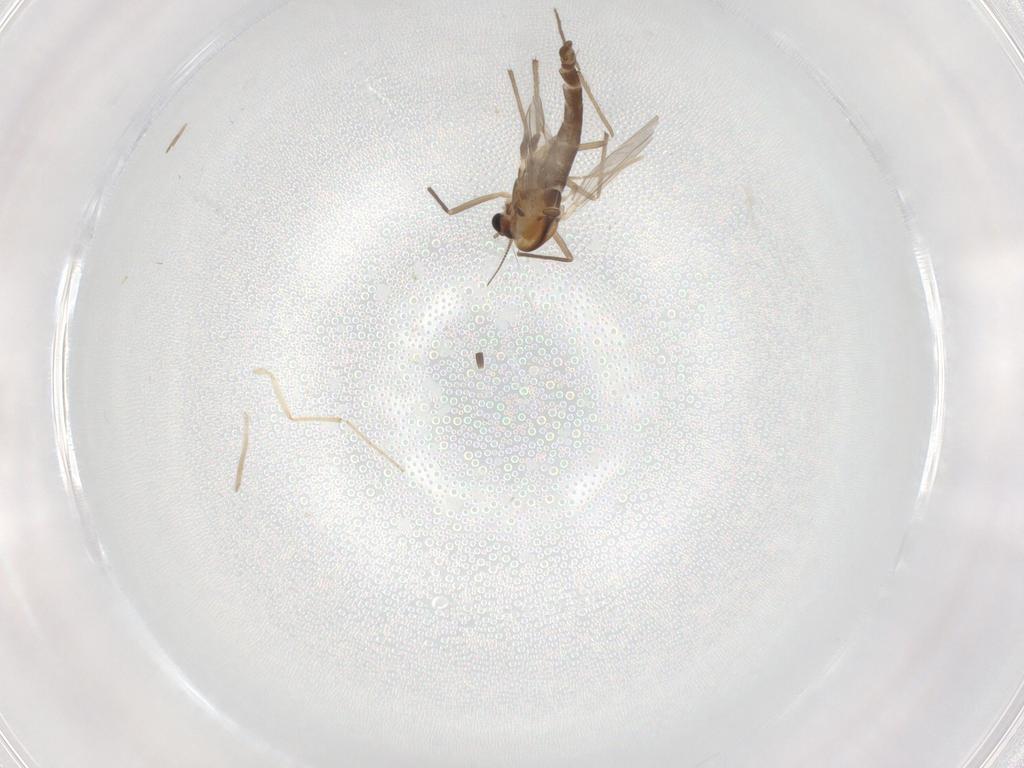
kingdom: Animalia
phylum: Arthropoda
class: Insecta
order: Diptera
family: Chironomidae
